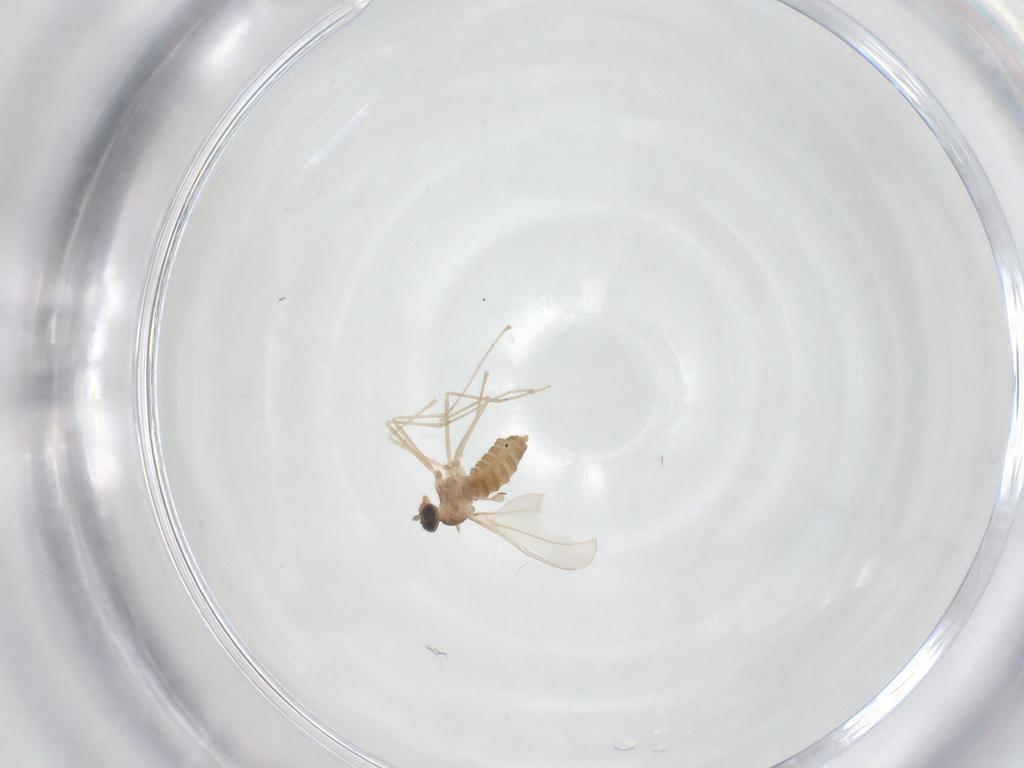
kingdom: Animalia
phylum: Arthropoda
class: Insecta
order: Diptera
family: Cecidomyiidae
